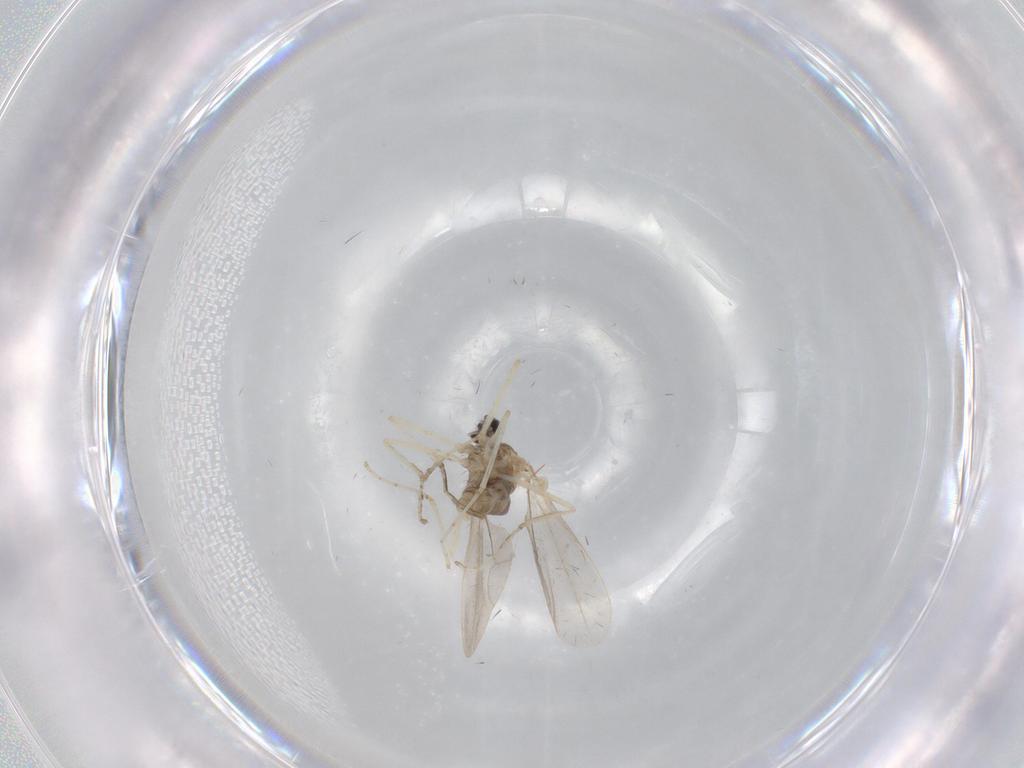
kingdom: Animalia
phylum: Arthropoda
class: Insecta
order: Diptera
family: Cecidomyiidae
